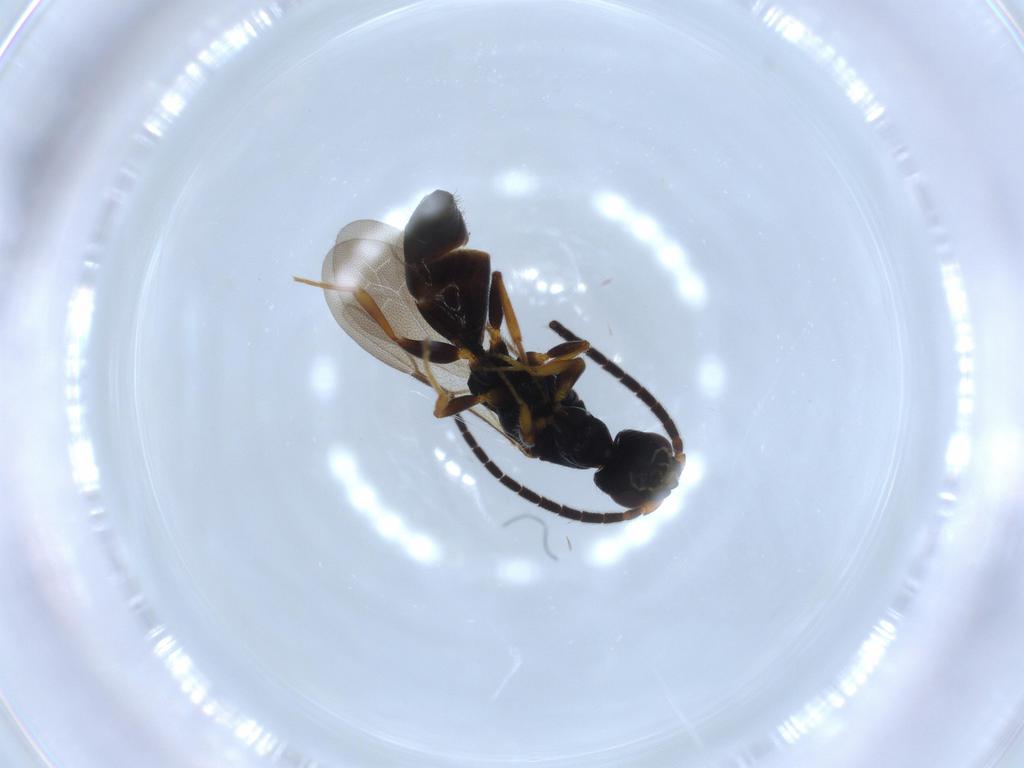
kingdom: Animalia
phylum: Arthropoda
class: Insecta
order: Hymenoptera
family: Bethylidae
